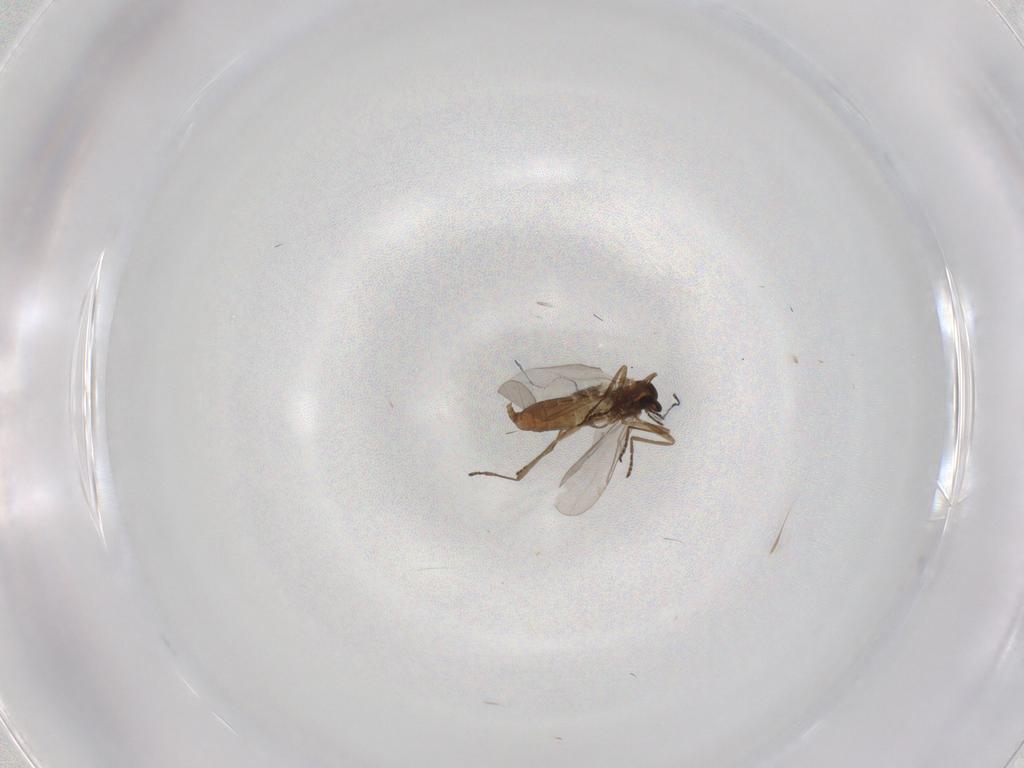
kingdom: Animalia
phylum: Arthropoda
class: Insecta
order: Diptera
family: Cecidomyiidae
